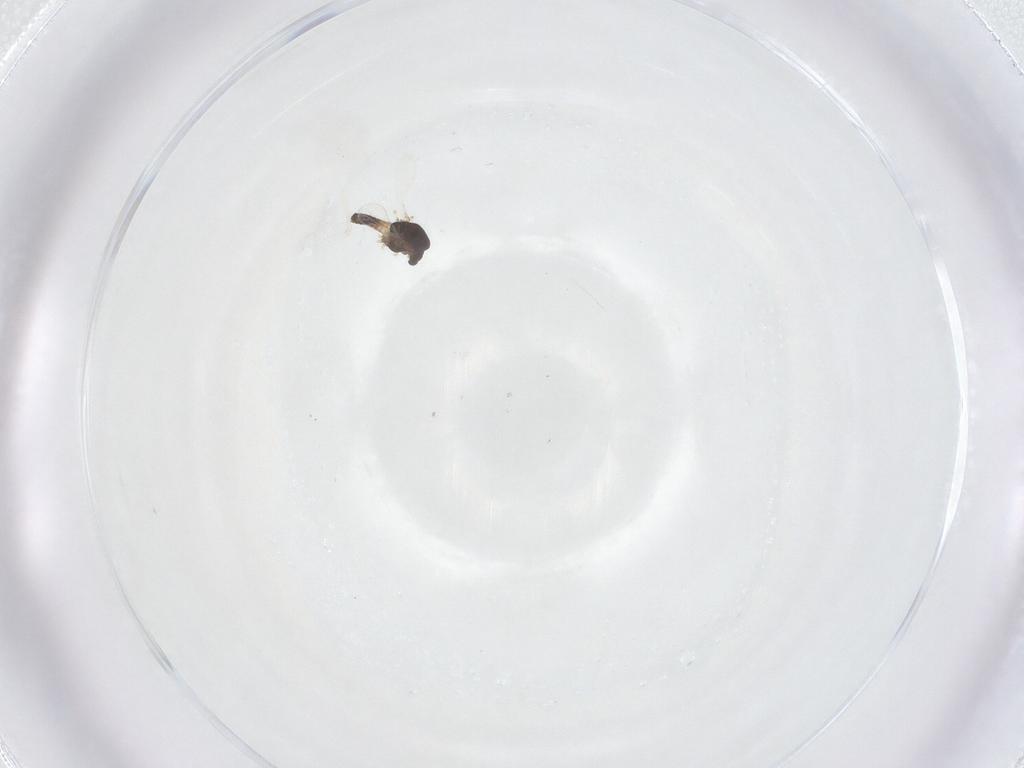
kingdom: Animalia
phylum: Arthropoda
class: Insecta
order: Diptera
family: Chironomidae
